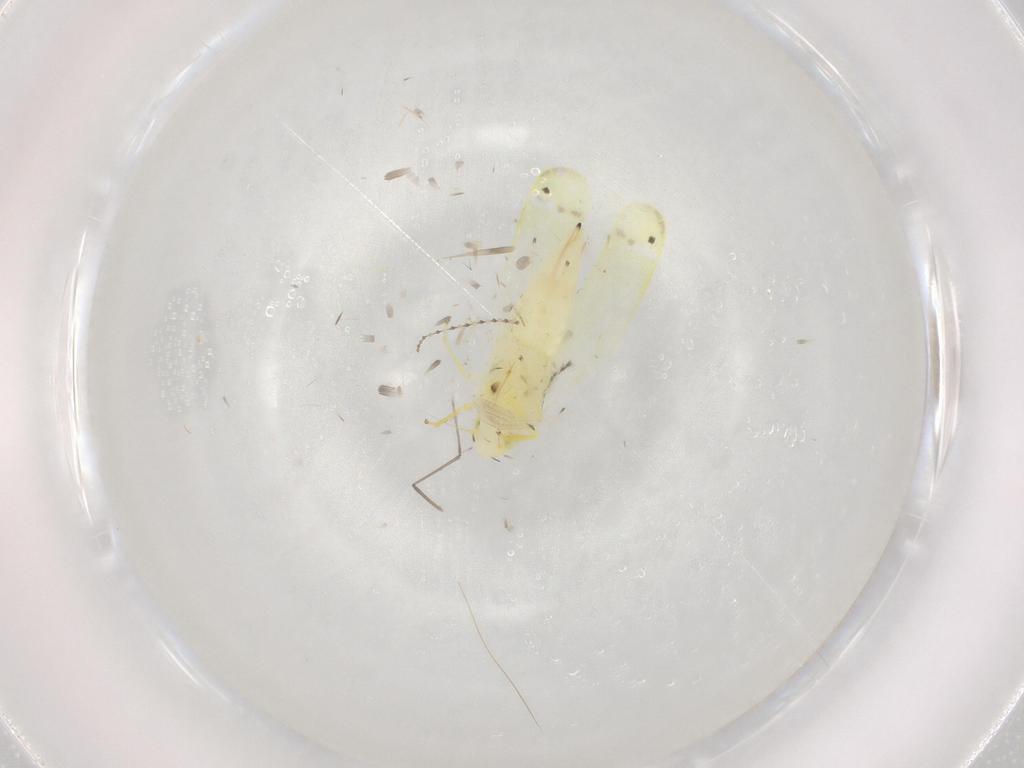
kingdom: Animalia
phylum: Arthropoda
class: Insecta
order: Hemiptera
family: Cicadellidae
